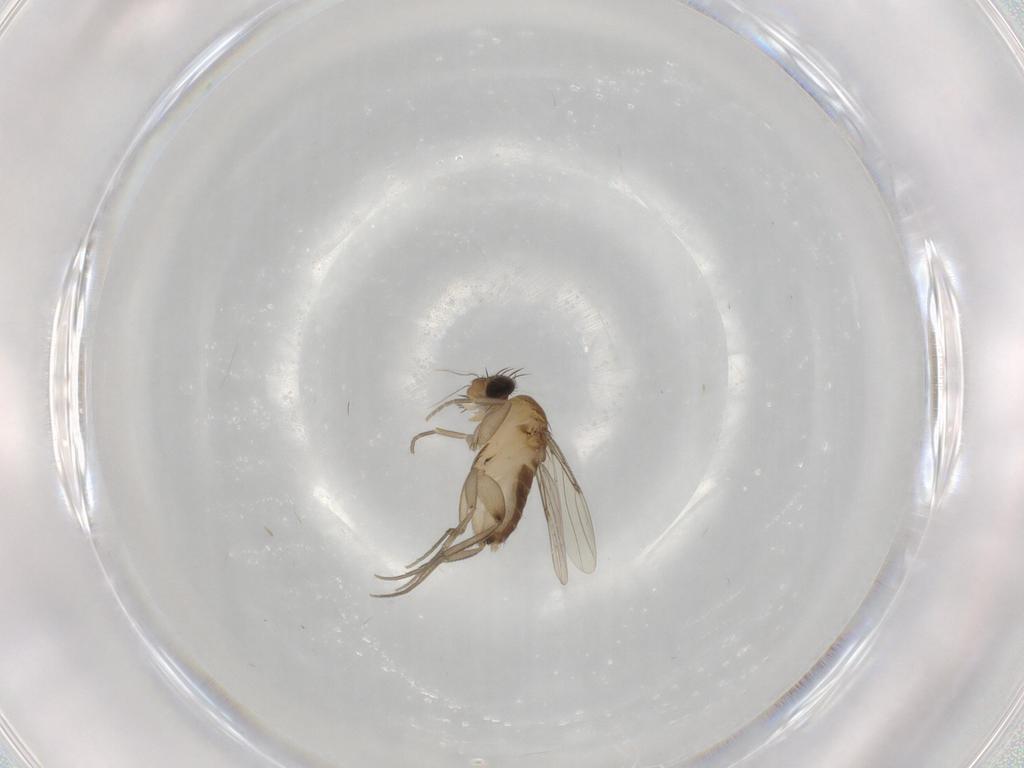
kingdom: Animalia
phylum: Arthropoda
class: Insecta
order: Diptera
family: Phoridae
